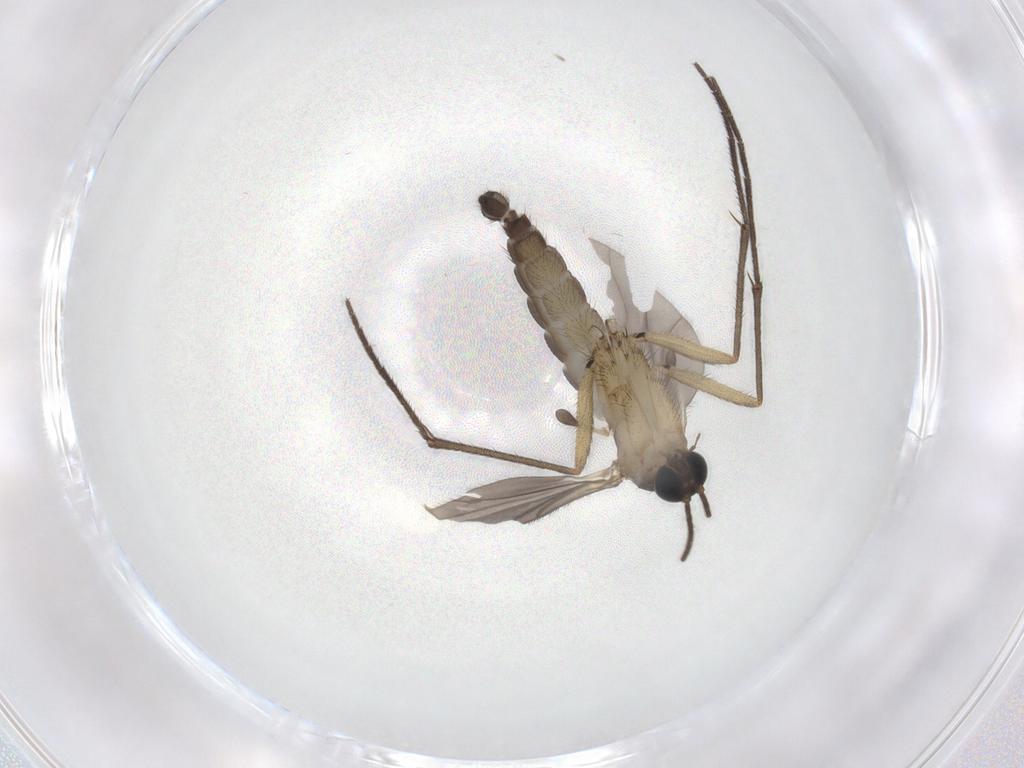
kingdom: Animalia
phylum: Arthropoda
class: Insecta
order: Diptera
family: Sciaridae
